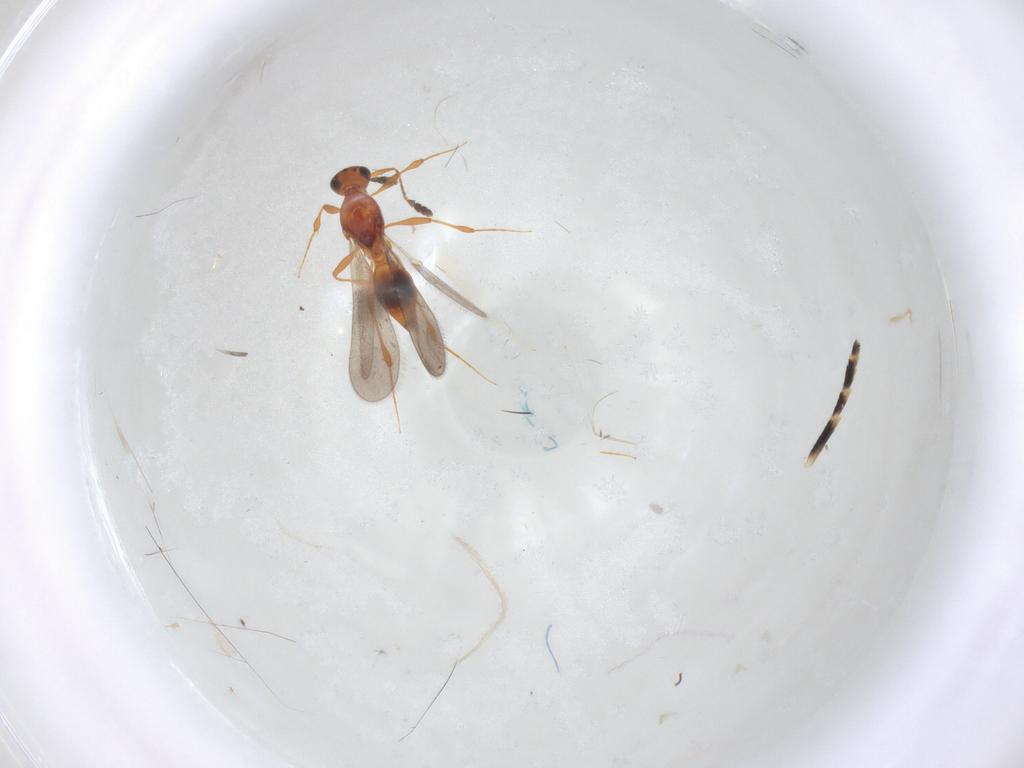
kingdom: Animalia
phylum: Arthropoda
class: Insecta
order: Hymenoptera
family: Platygastridae
